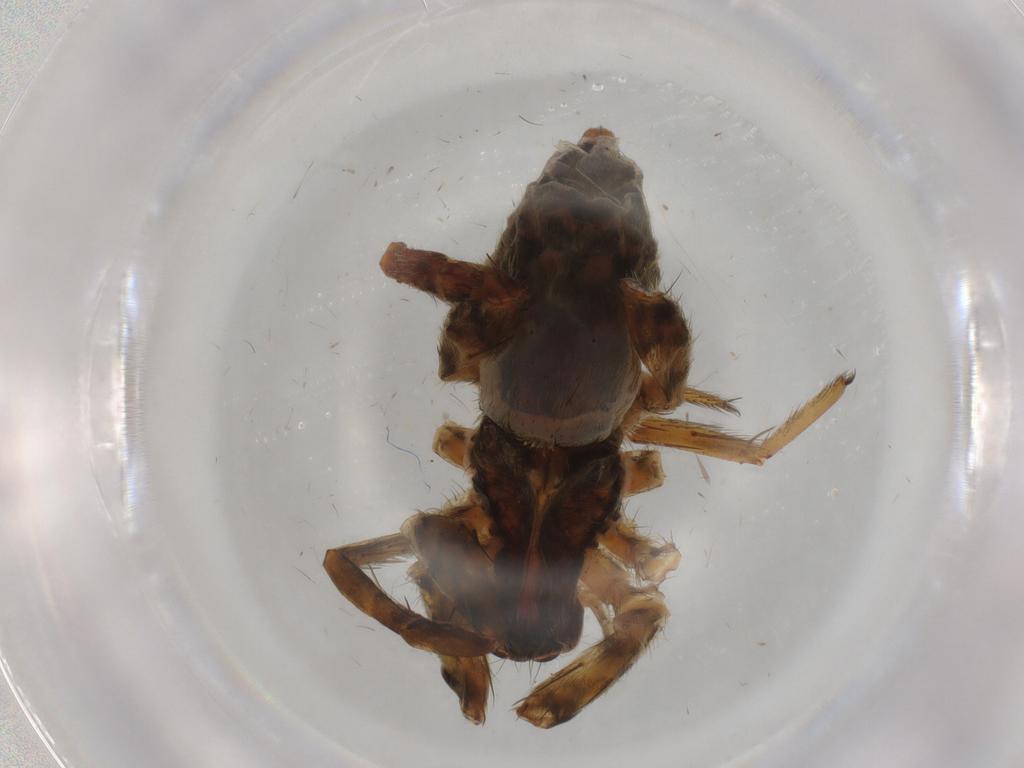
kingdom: Animalia
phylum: Arthropoda
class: Arachnida
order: Araneae
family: Lycosidae
